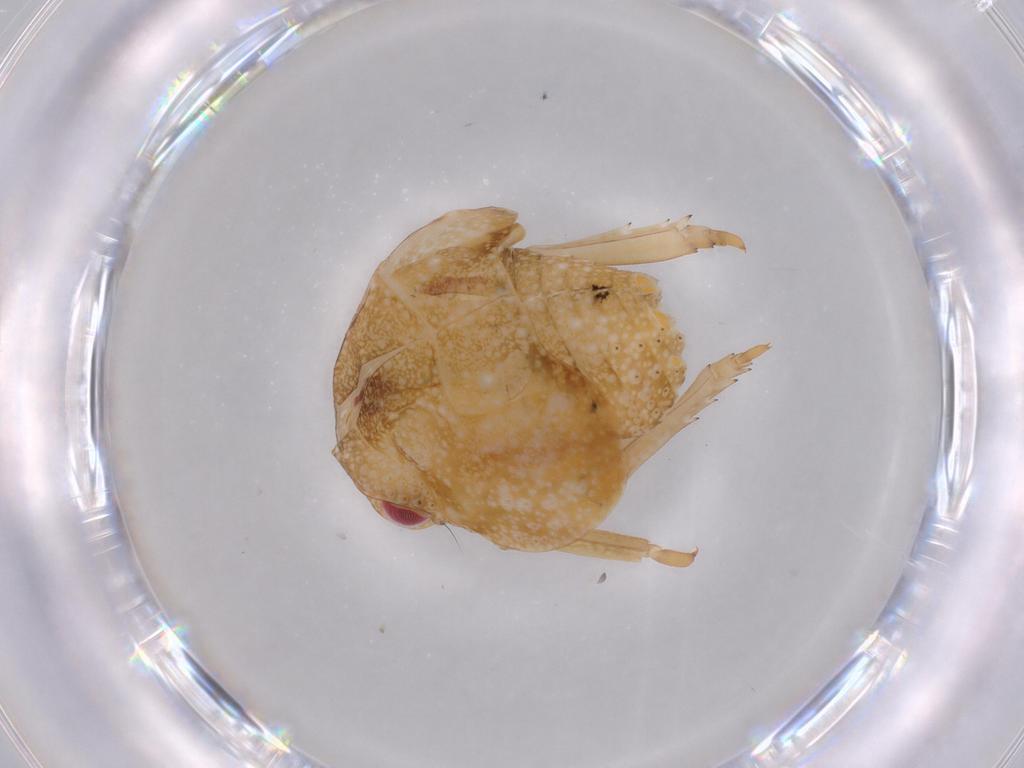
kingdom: Animalia
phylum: Arthropoda
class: Insecta
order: Hemiptera
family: Acanaloniidae
